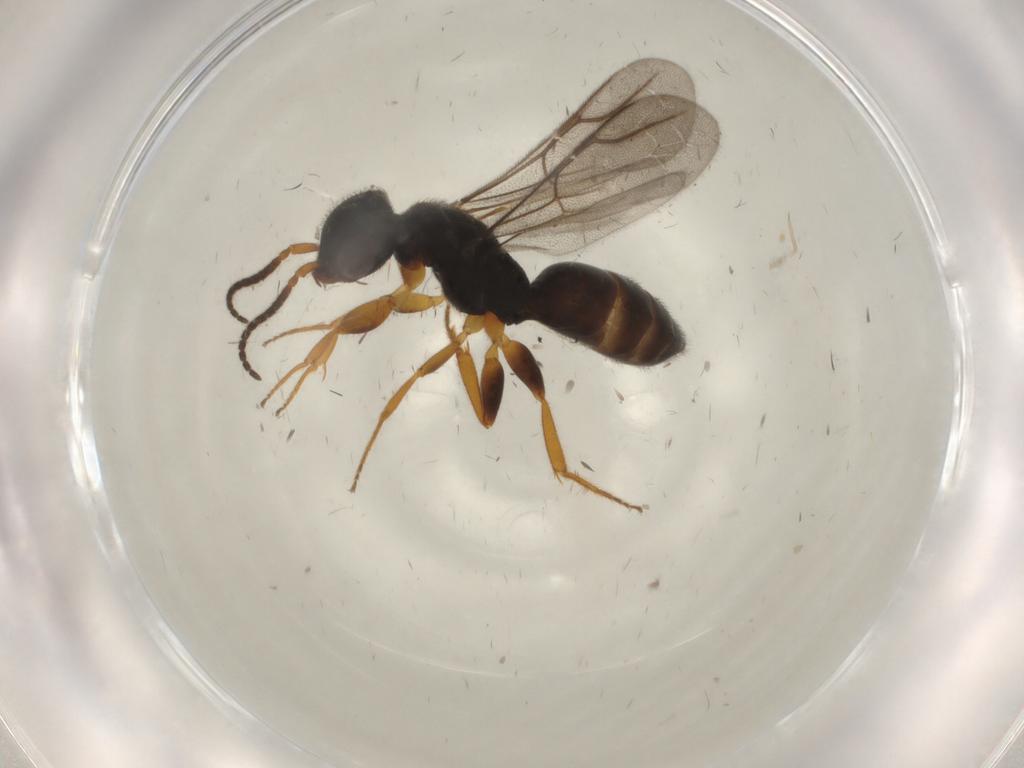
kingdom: Animalia
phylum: Arthropoda
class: Insecta
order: Hymenoptera
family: Bethylidae
